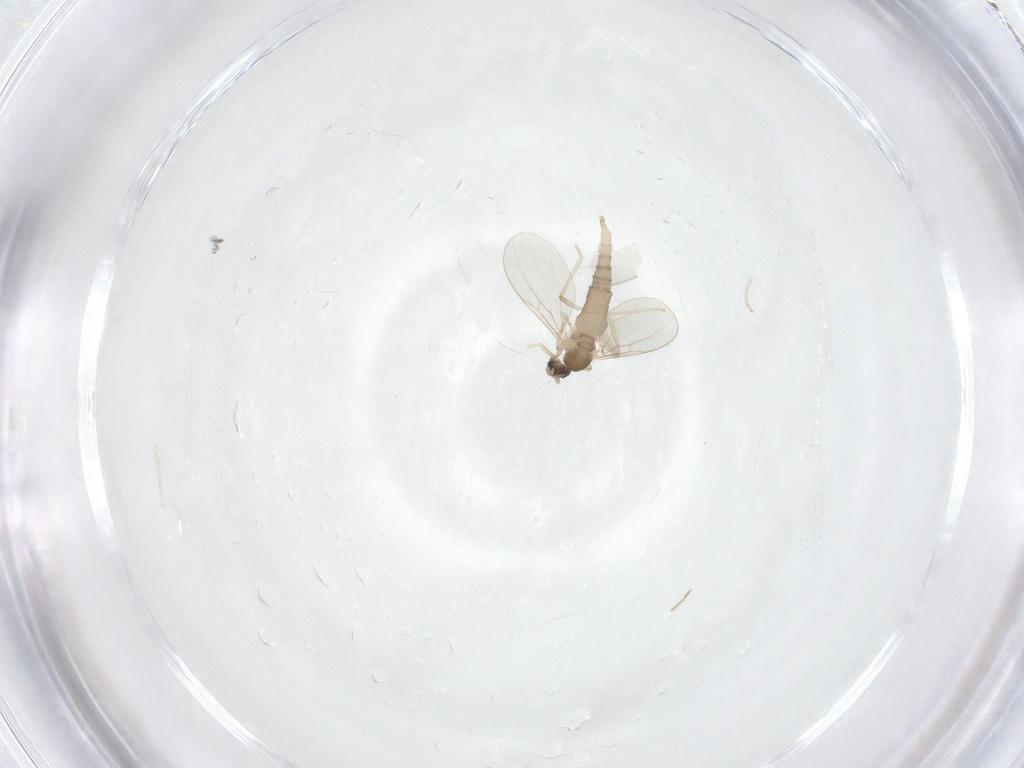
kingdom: Animalia
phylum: Arthropoda
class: Insecta
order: Diptera
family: Chironomidae
